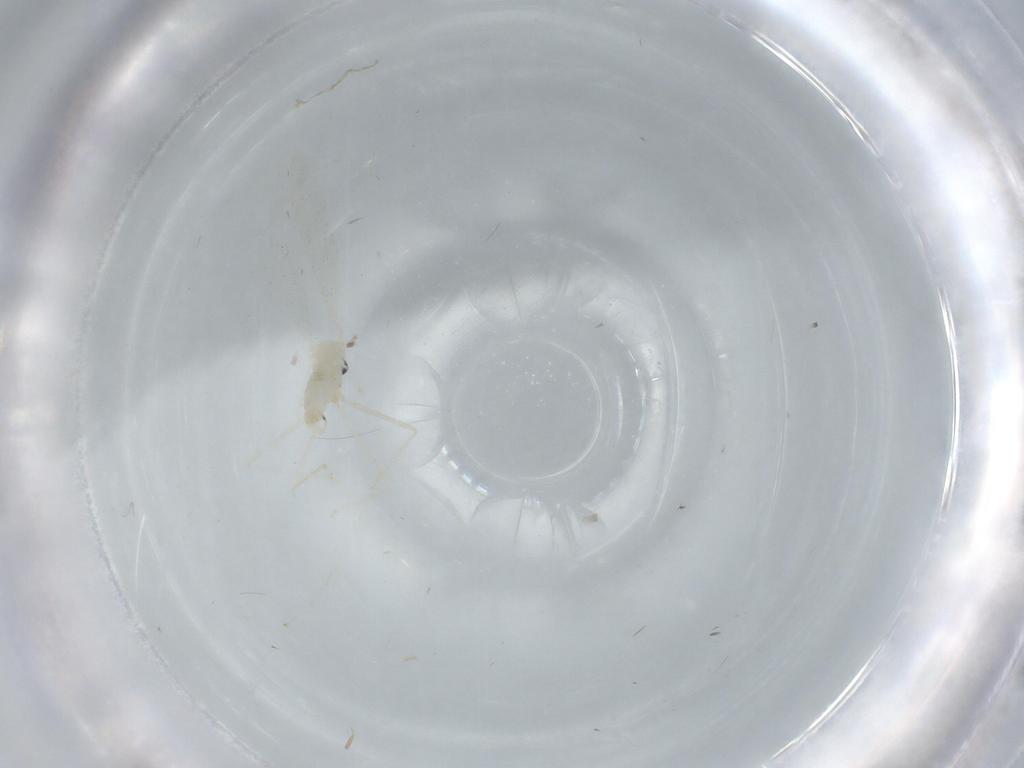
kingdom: Animalia
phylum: Arthropoda
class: Insecta
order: Diptera
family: Cecidomyiidae
